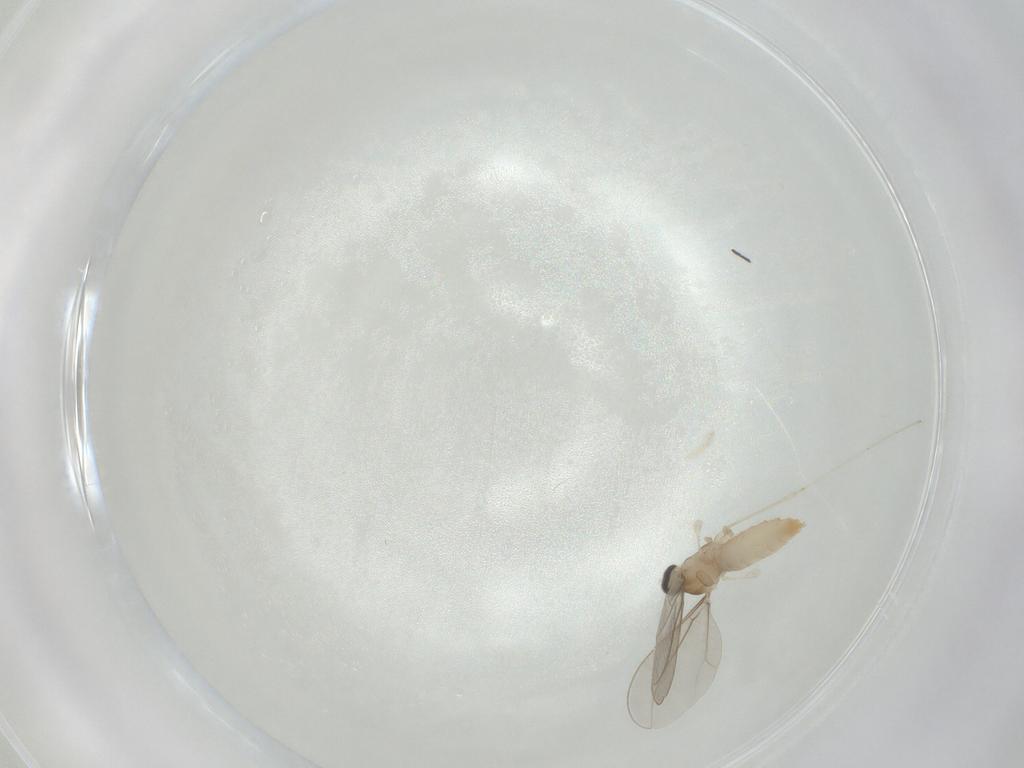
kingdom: Animalia
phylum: Arthropoda
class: Insecta
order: Diptera
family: Cecidomyiidae
